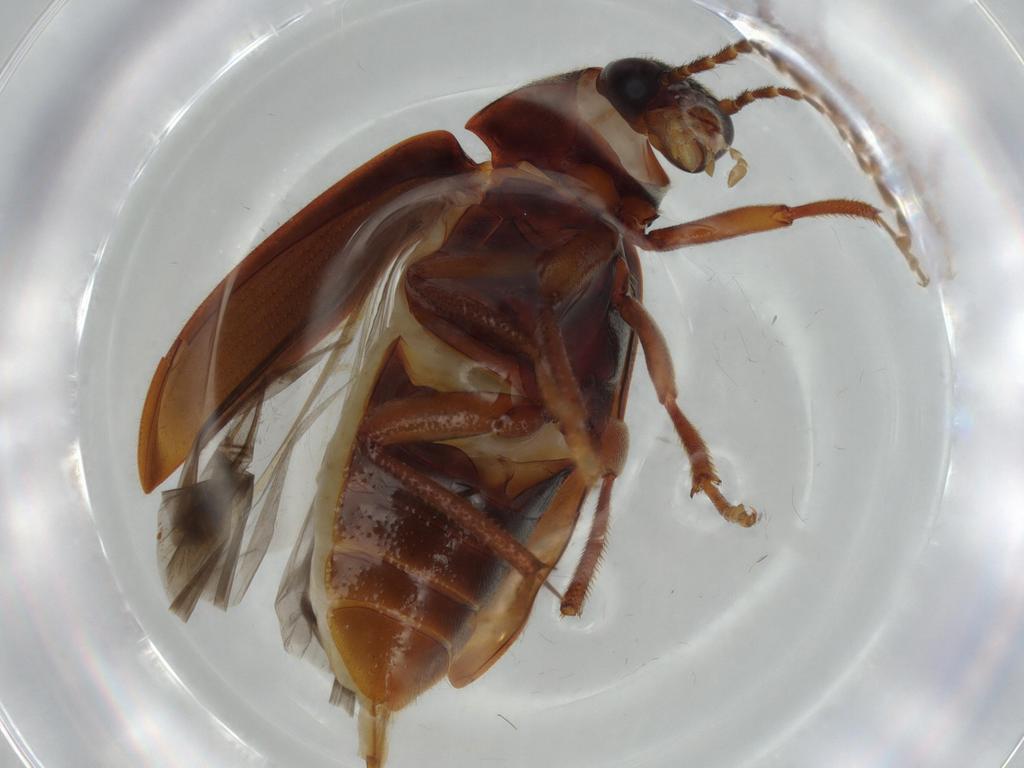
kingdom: Animalia
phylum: Arthropoda
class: Insecta
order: Coleoptera
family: Ptilodactylidae
